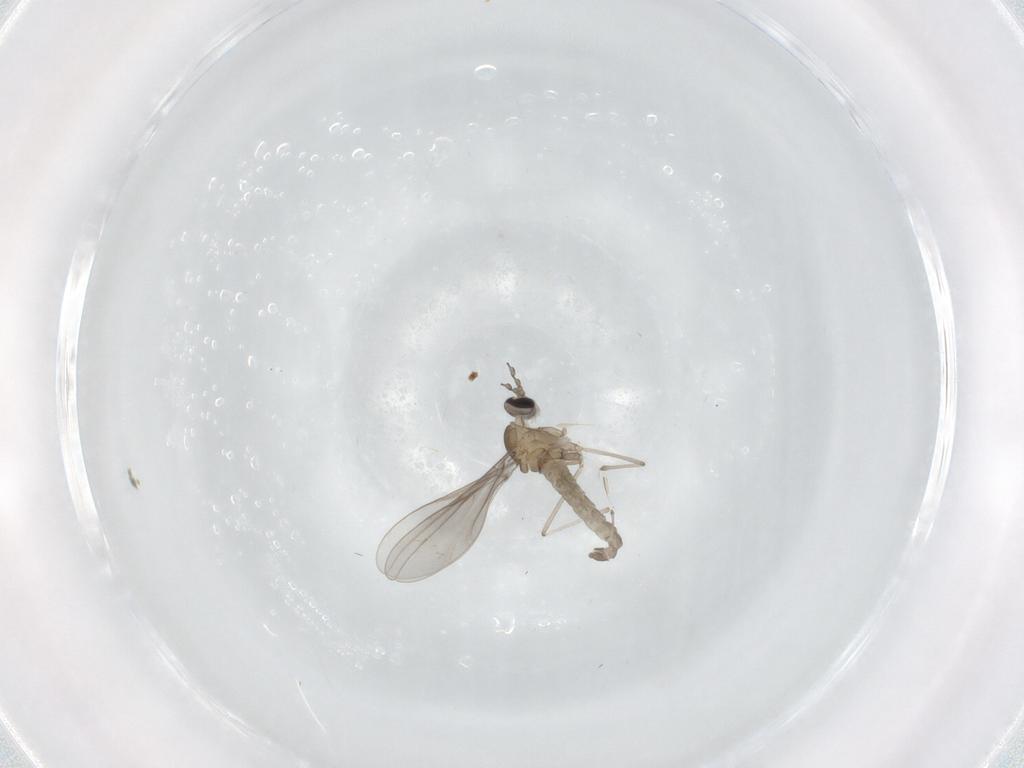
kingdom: Animalia
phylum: Arthropoda
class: Insecta
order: Diptera
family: Cecidomyiidae
